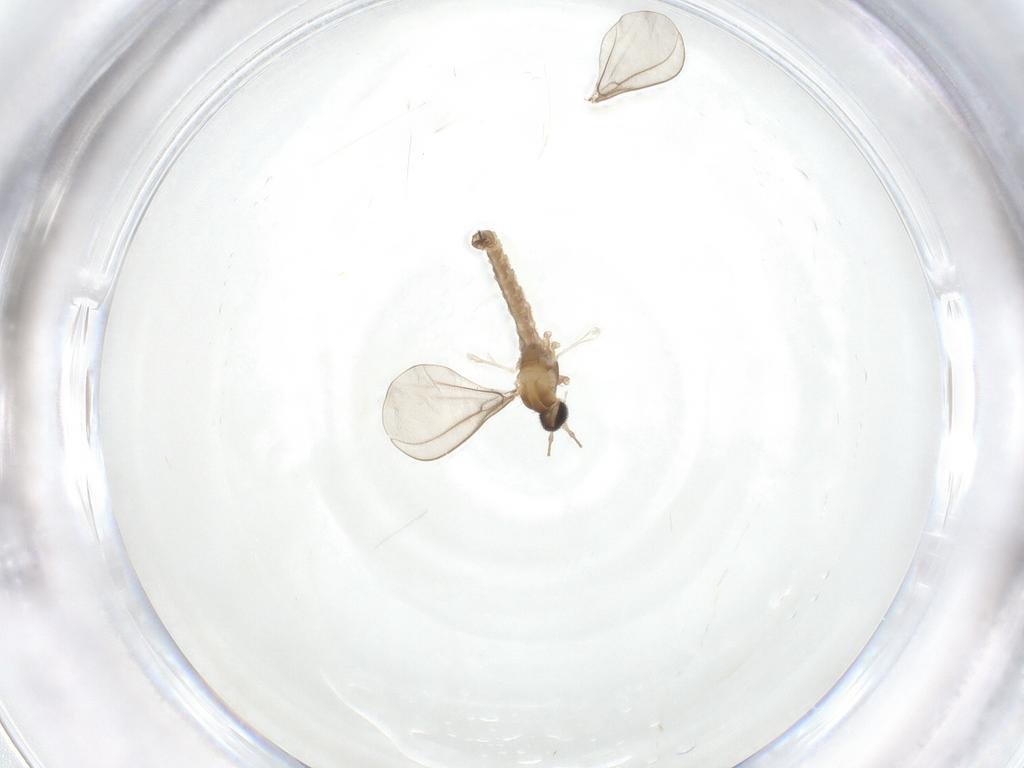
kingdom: Animalia
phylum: Arthropoda
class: Insecta
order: Diptera
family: Cecidomyiidae
